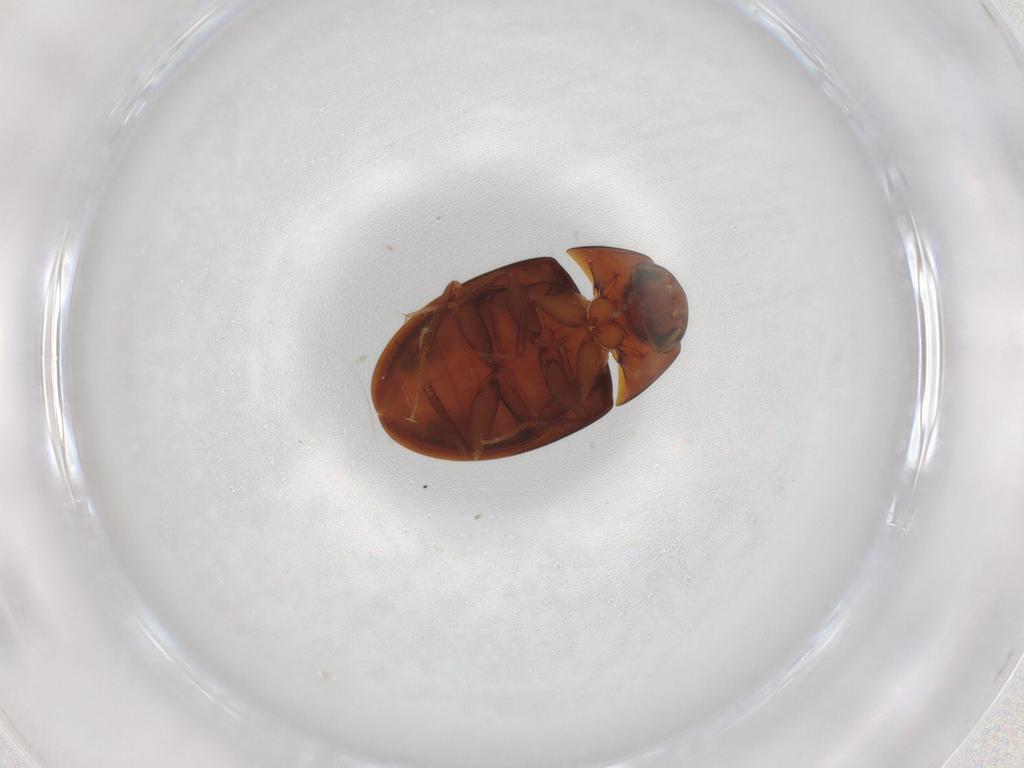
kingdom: Animalia
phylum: Arthropoda
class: Insecta
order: Coleoptera
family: Hydrophilidae
